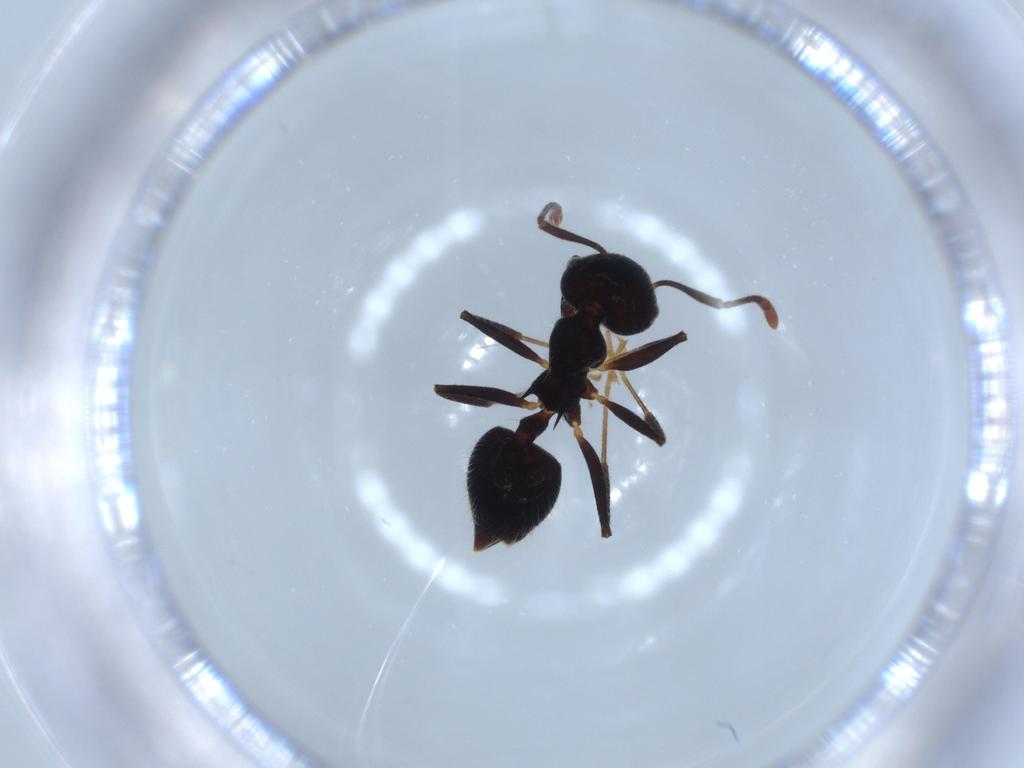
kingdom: Animalia
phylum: Arthropoda
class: Insecta
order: Hymenoptera
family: Formicidae
